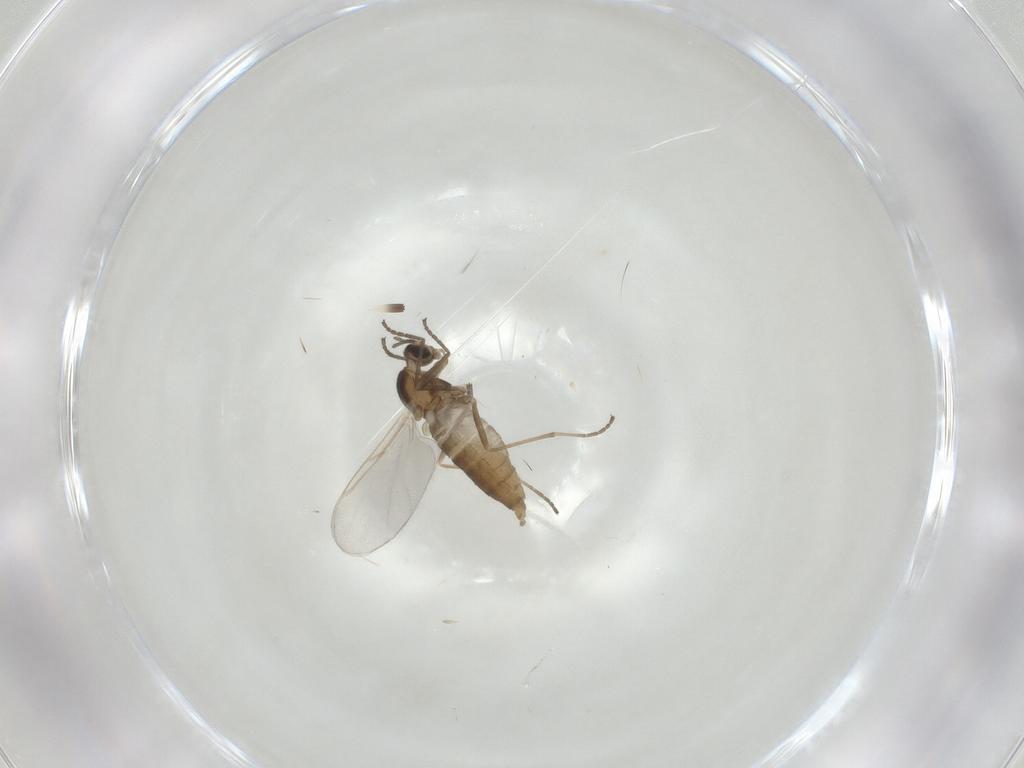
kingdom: Animalia
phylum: Arthropoda
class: Insecta
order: Diptera
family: Cecidomyiidae
